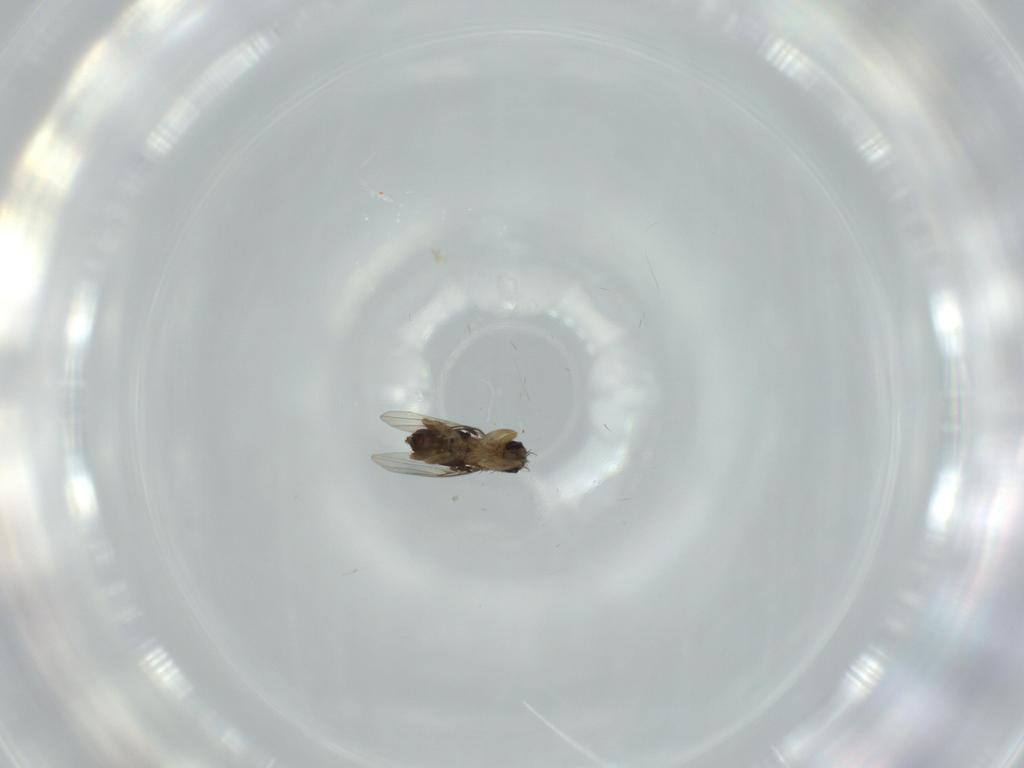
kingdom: Animalia
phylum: Arthropoda
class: Insecta
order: Diptera
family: Phoridae
